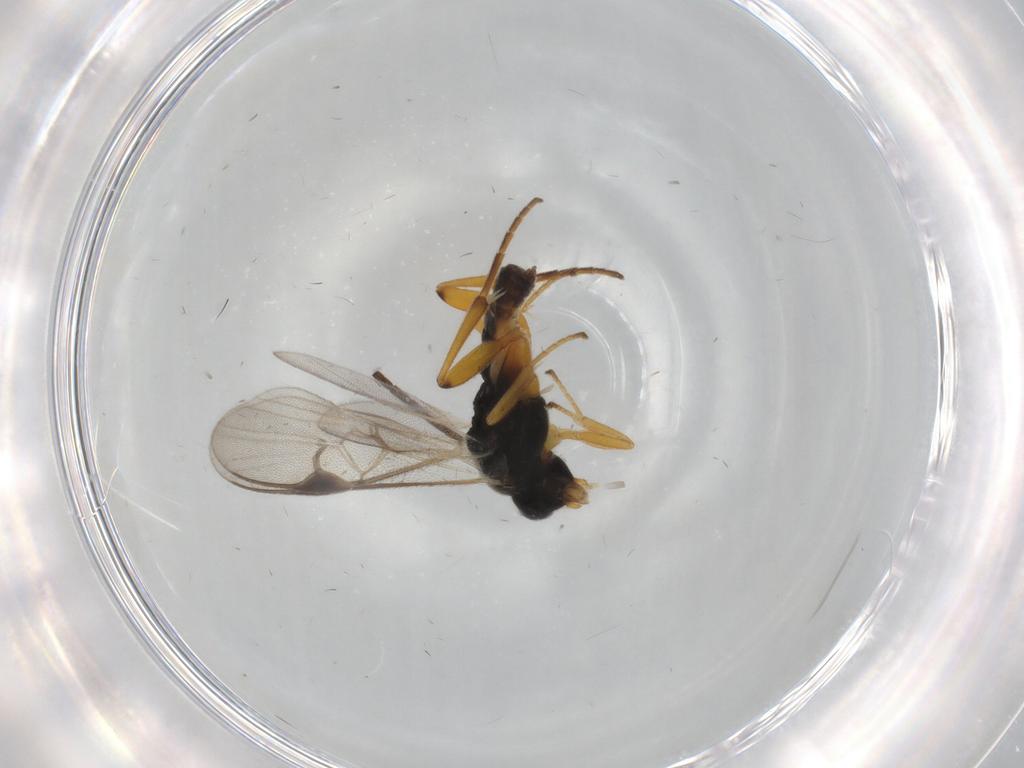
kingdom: Animalia
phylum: Arthropoda
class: Insecta
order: Hymenoptera
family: Braconidae
